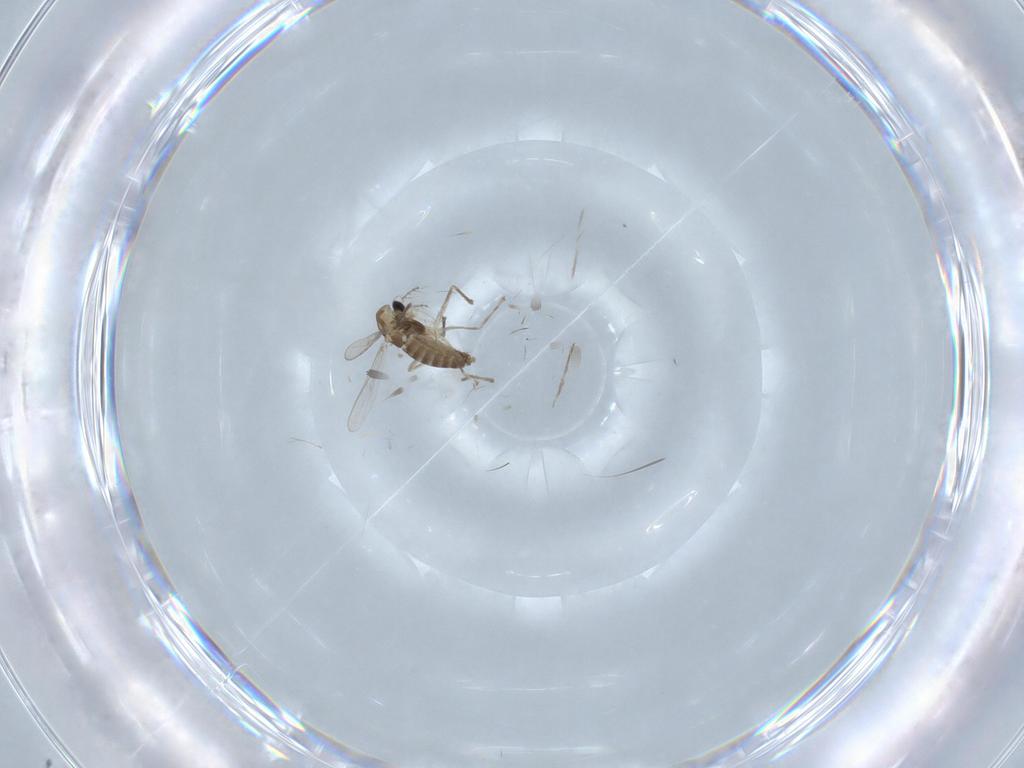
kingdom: Animalia
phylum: Arthropoda
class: Insecta
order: Diptera
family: Chironomidae
